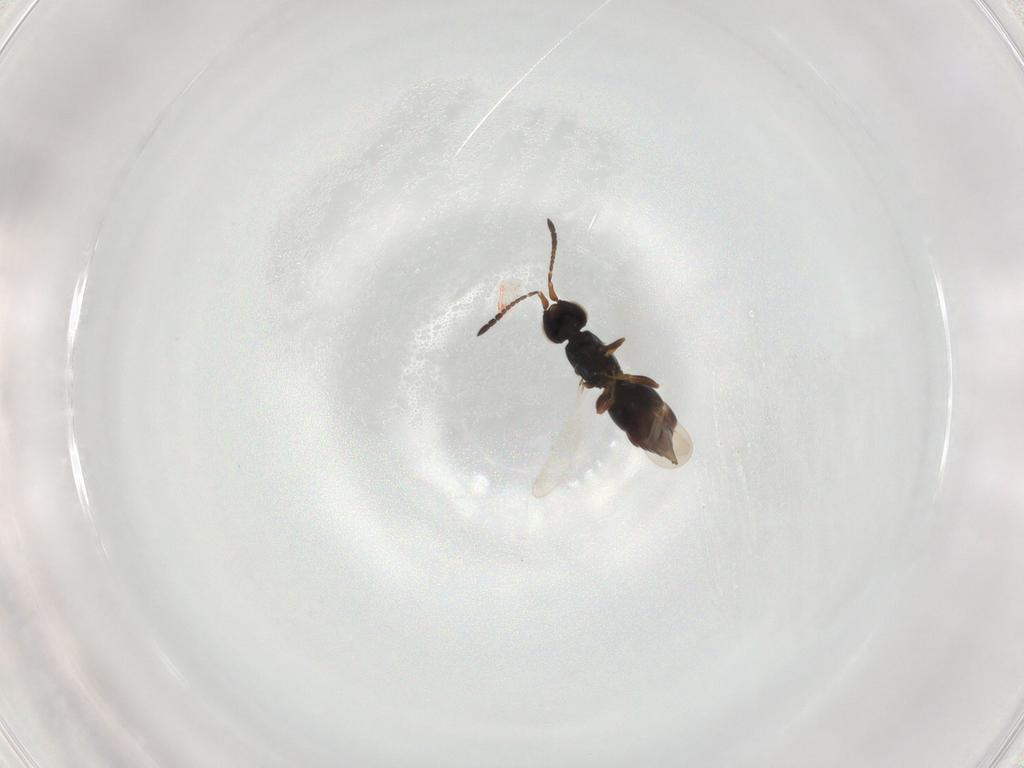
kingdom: Animalia
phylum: Arthropoda
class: Insecta
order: Hymenoptera
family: Ceraphronidae
